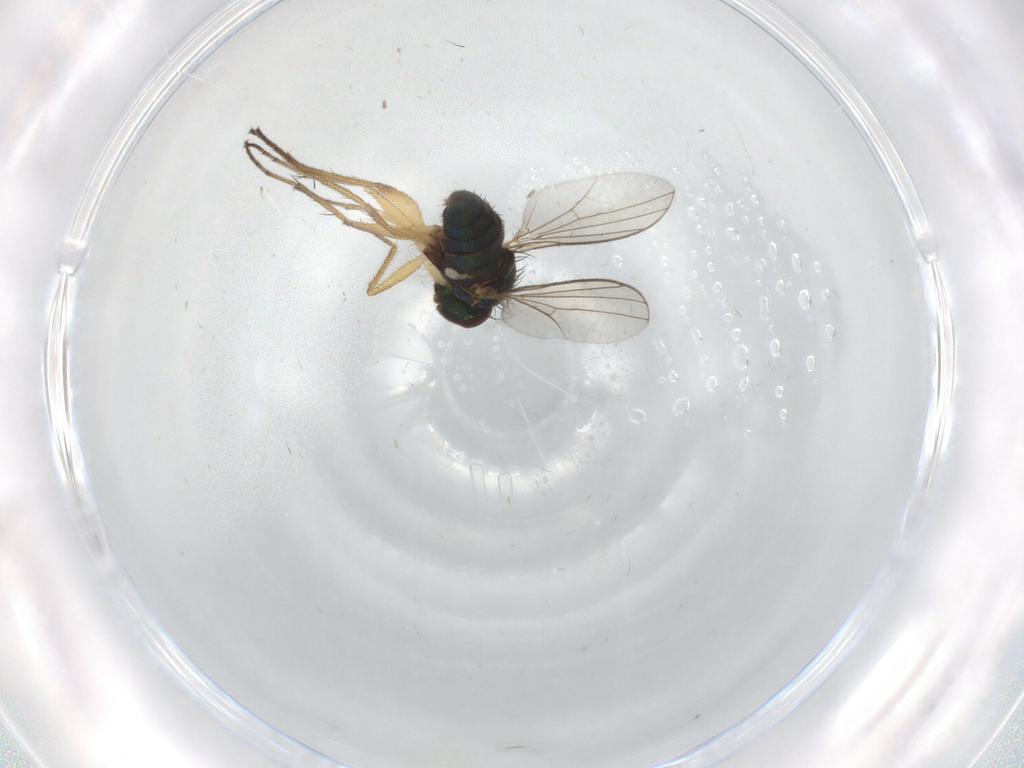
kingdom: Animalia
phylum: Arthropoda
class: Insecta
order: Diptera
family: Cecidomyiidae
